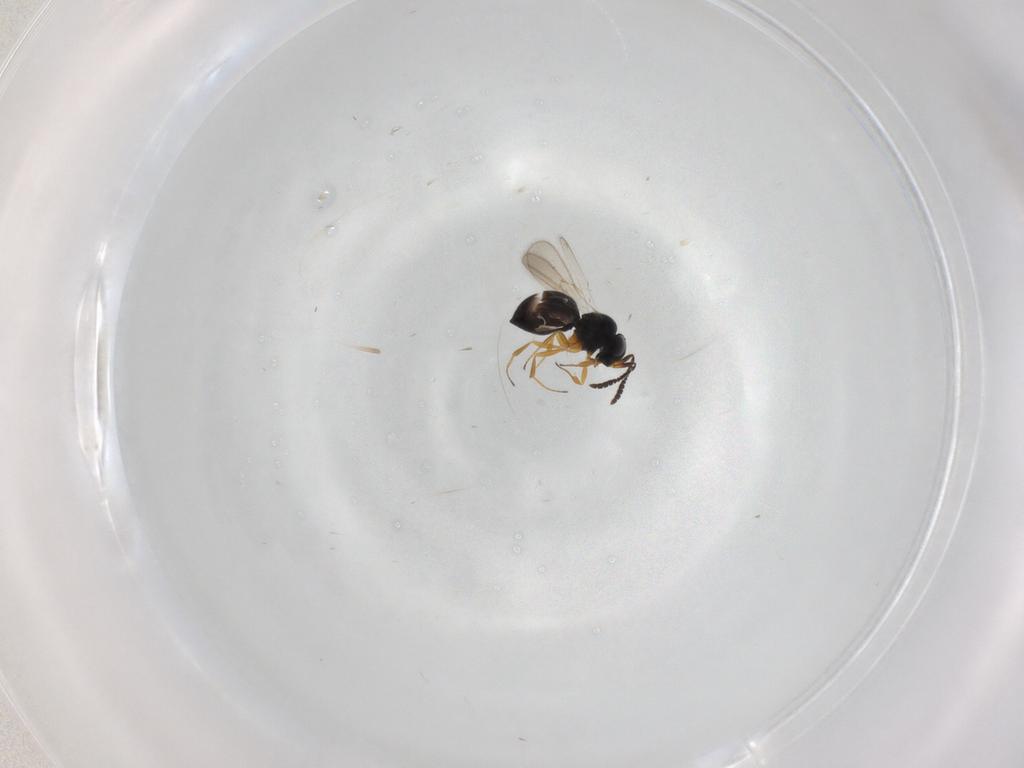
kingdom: Animalia
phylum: Arthropoda
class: Insecta
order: Hymenoptera
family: Scelionidae
